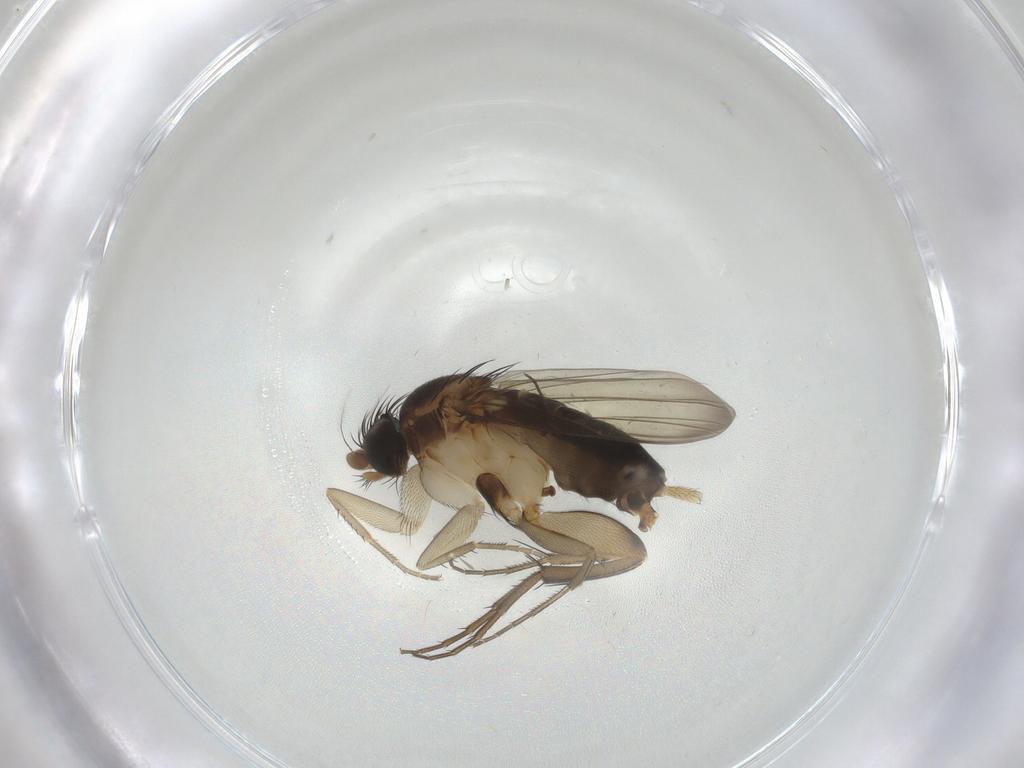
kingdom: Animalia
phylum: Arthropoda
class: Insecta
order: Diptera
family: Phoridae
